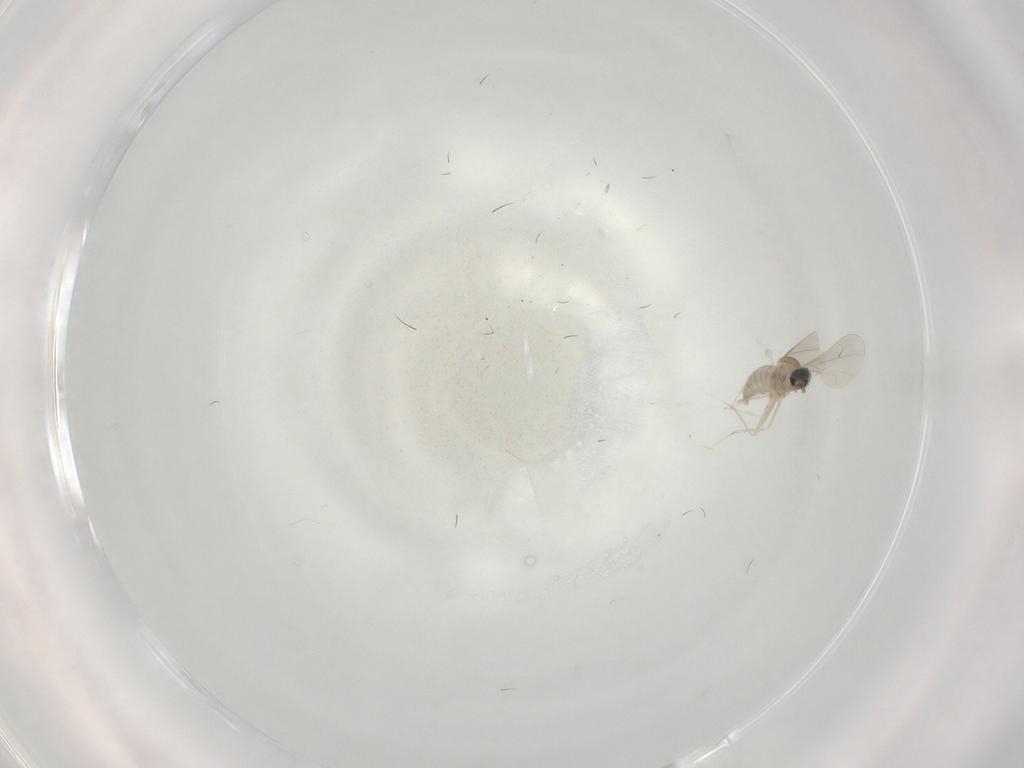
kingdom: Animalia
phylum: Arthropoda
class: Insecta
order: Diptera
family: Cecidomyiidae
